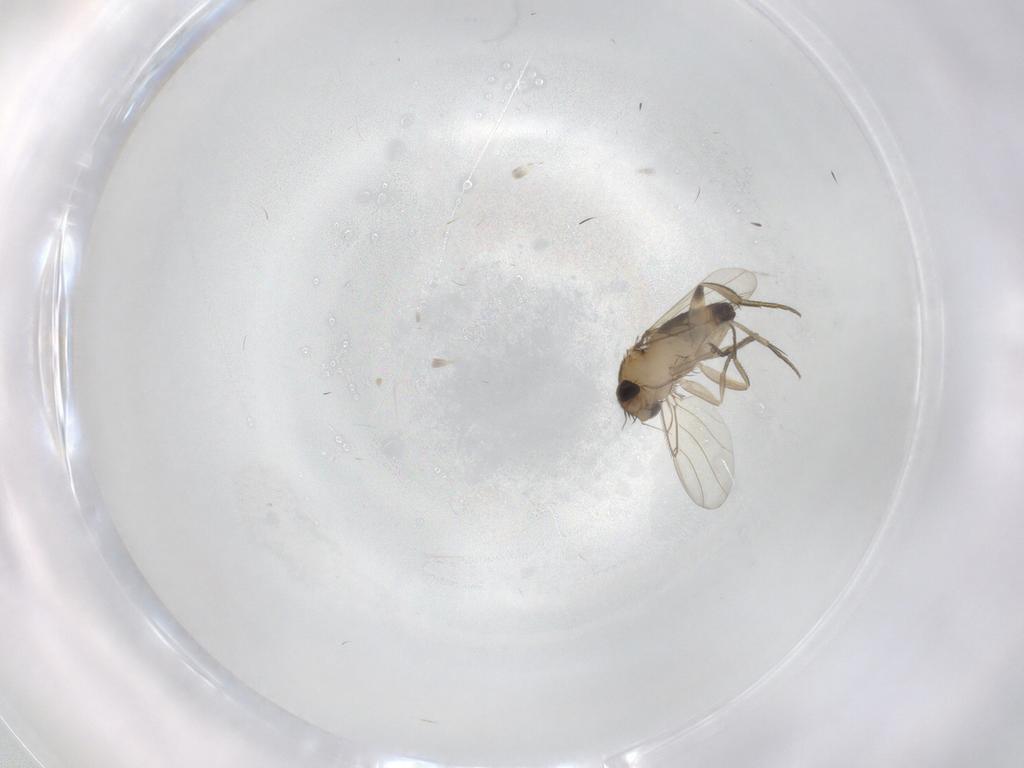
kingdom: Animalia
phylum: Arthropoda
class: Insecta
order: Diptera
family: Phoridae
